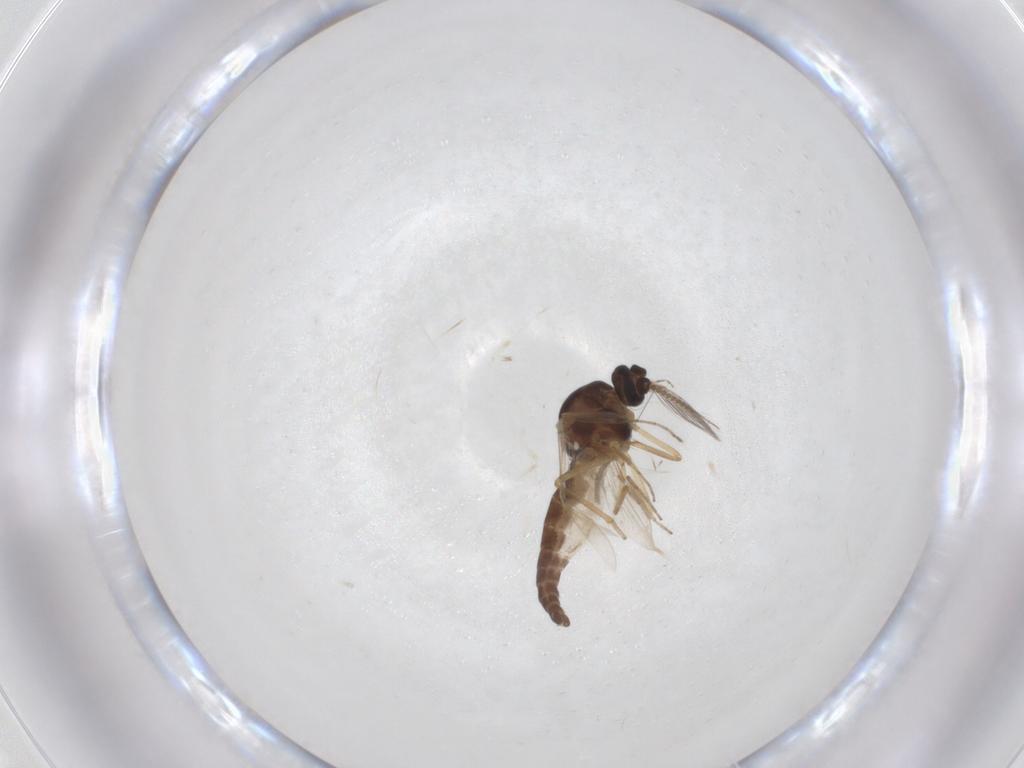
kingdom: Animalia
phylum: Arthropoda
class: Insecta
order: Diptera
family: Ceratopogonidae
